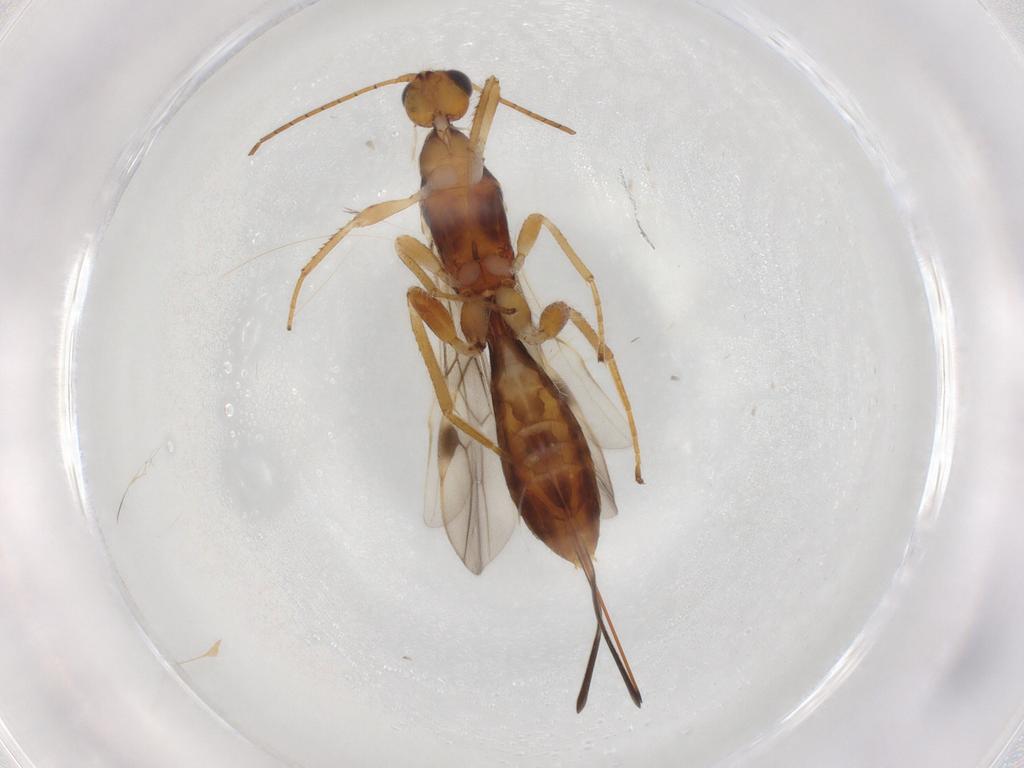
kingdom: Animalia
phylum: Arthropoda
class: Insecta
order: Hymenoptera
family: Braconidae
